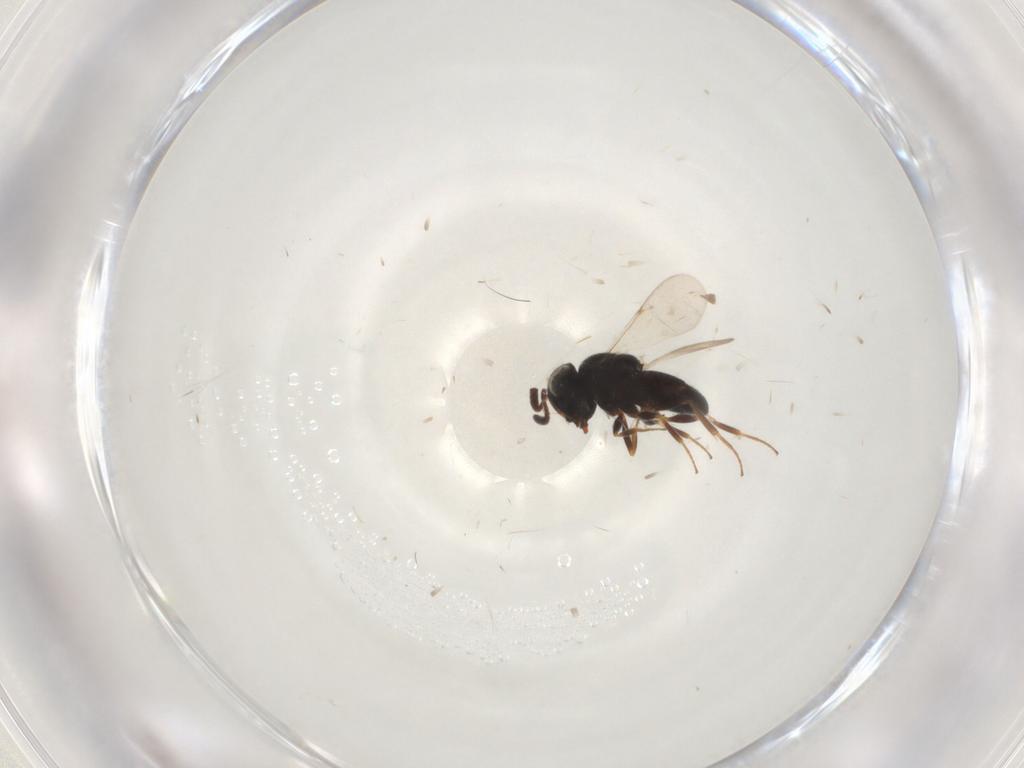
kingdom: Animalia
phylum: Arthropoda
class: Insecta
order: Hymenoptera
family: Scelionidae
